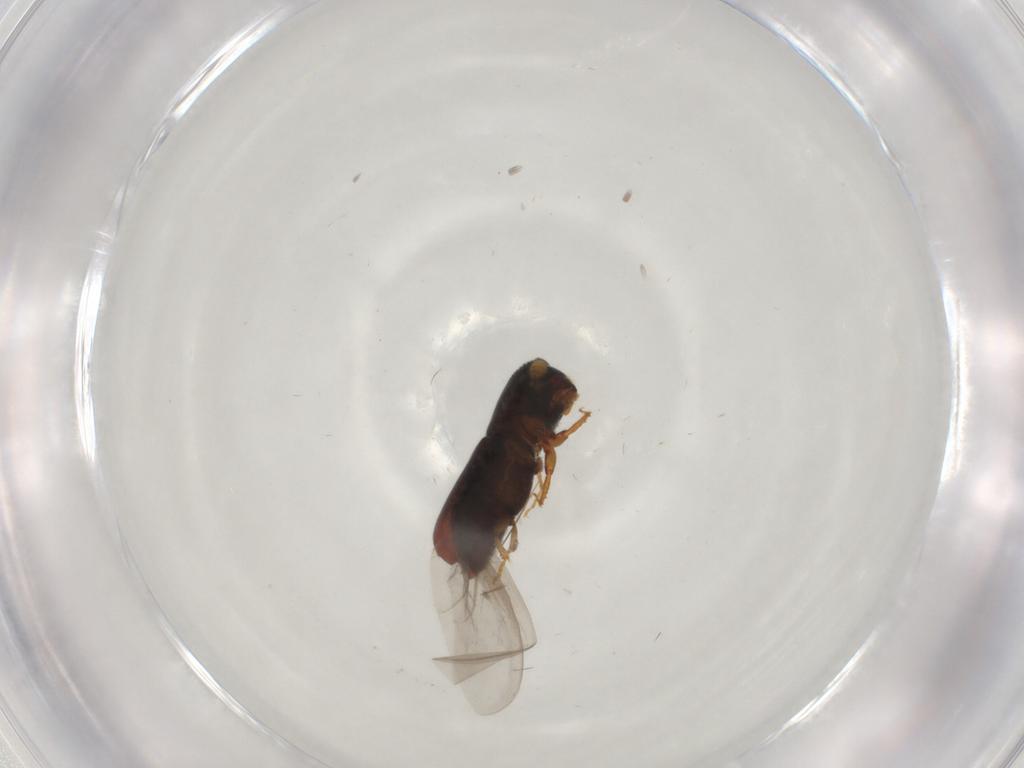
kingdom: Animalia
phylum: Arthropoda
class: Insecta
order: Coleoptera
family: Curculionidae
